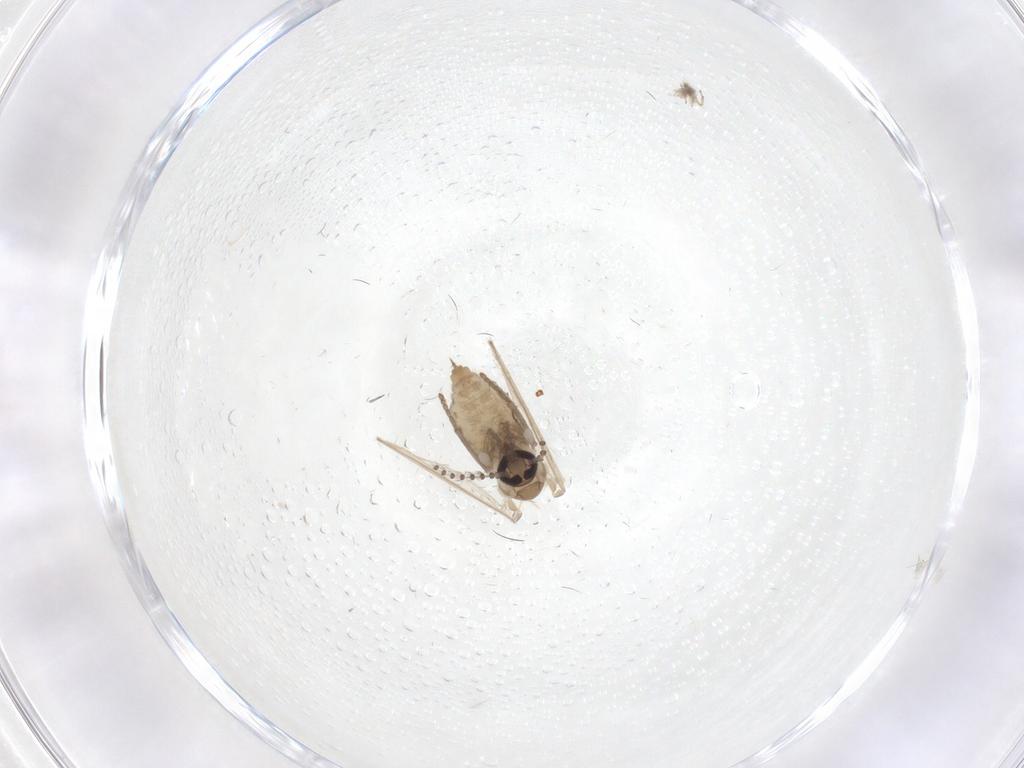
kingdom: Animalia
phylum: Arthropoda
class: Insecta
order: Diptera
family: Psychodidae
